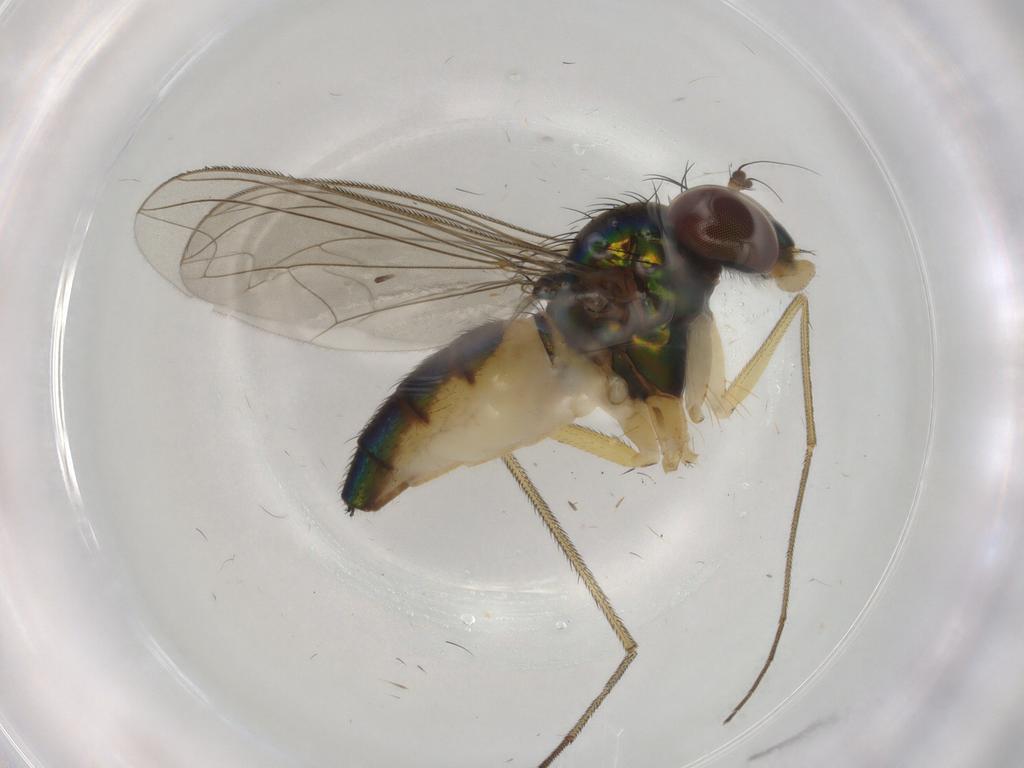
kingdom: Animalia
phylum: Arthropoda
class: Insecta
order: Diptera
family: Dolichopodidae
